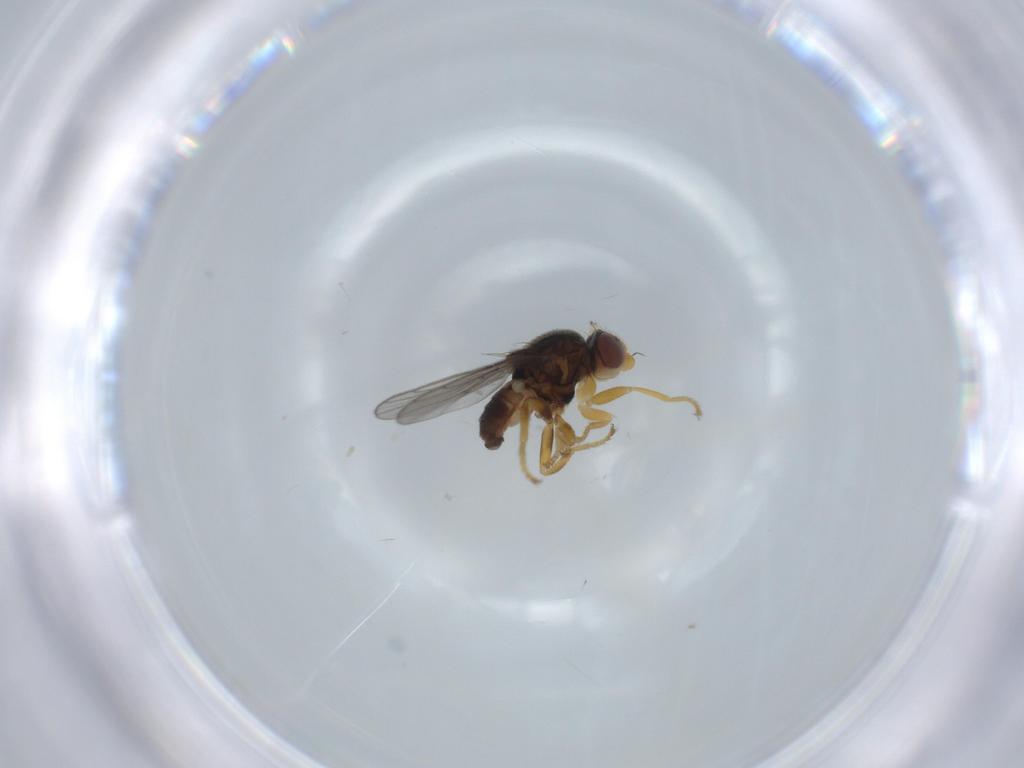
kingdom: Animalia
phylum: Arthropoda
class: Insecta
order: Diptera
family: Chloropidae
